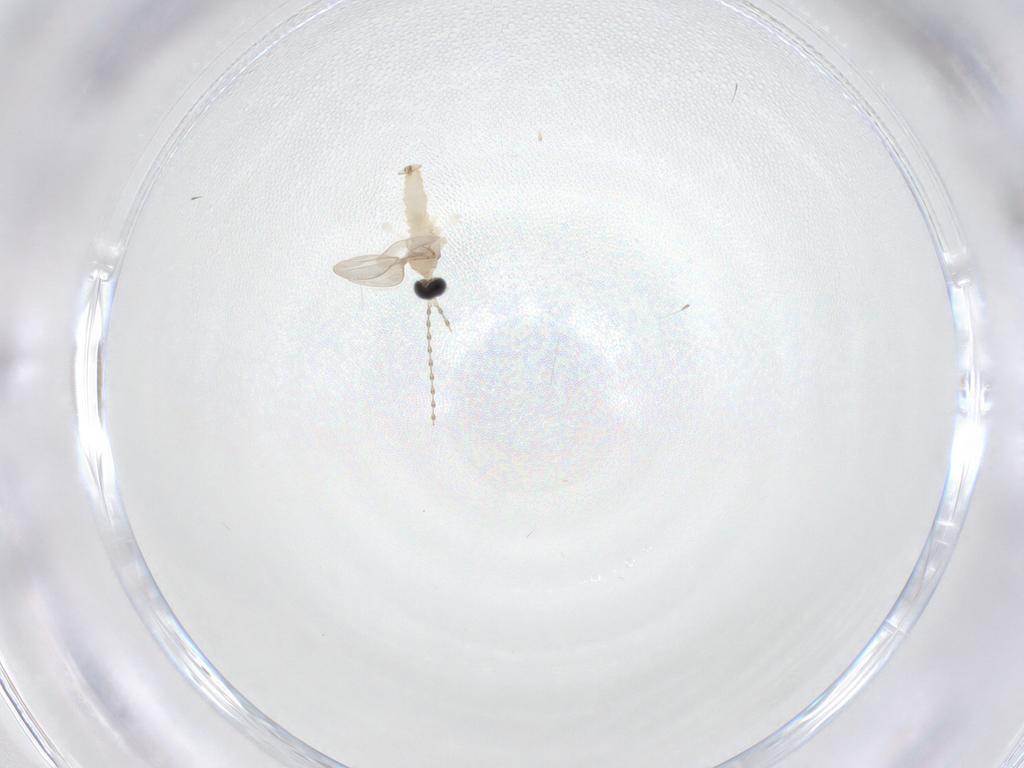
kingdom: Animalia
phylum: Arthropoda
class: Insecta
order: Diptera
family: Cecidomyiidae
